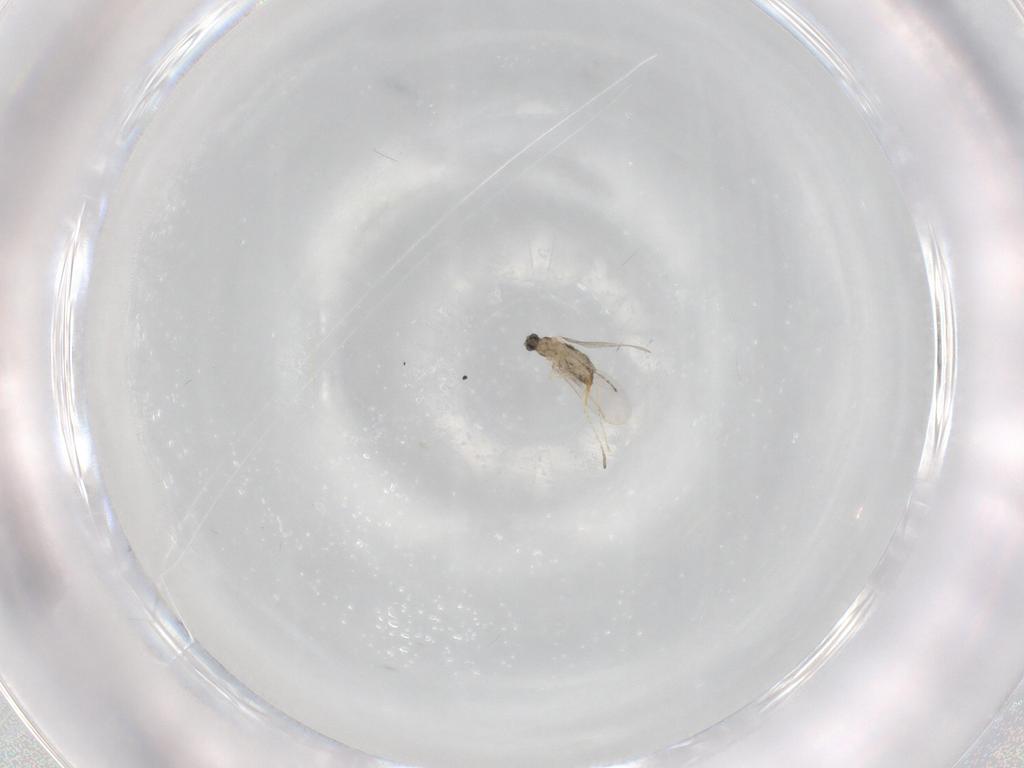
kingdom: Animalia
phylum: Arthropoda
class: Insecta
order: Diptera
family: Cecidomyiidae
